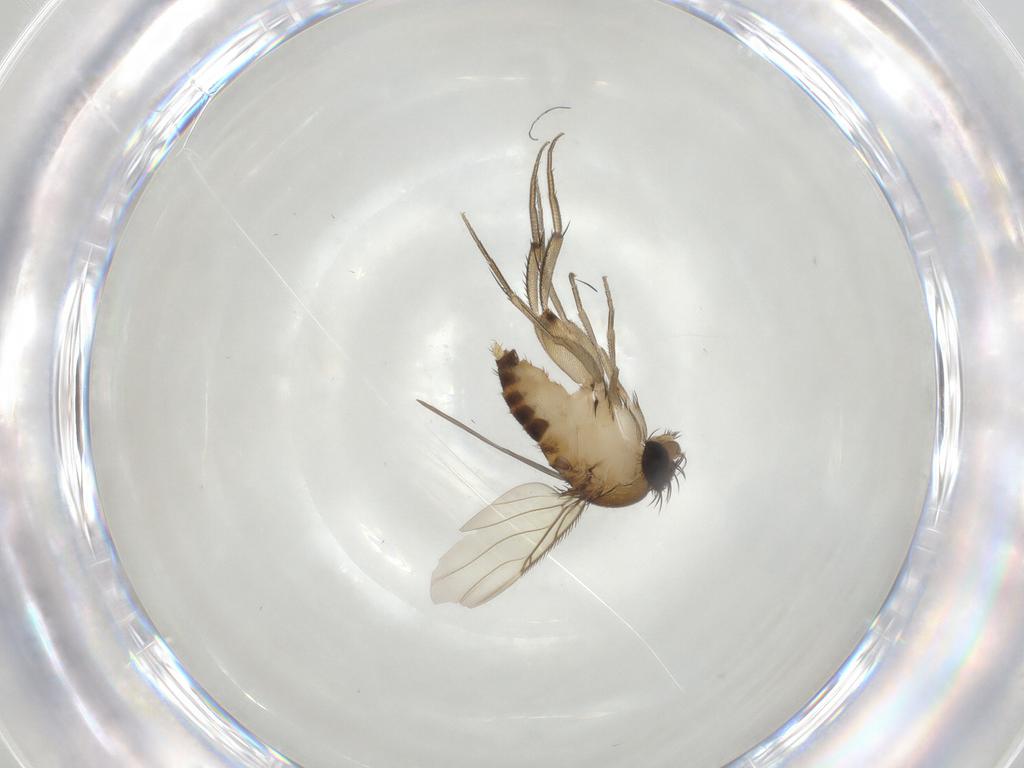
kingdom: Animalia
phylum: Arthropoda
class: Insecta
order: Diptera
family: Phoridae
